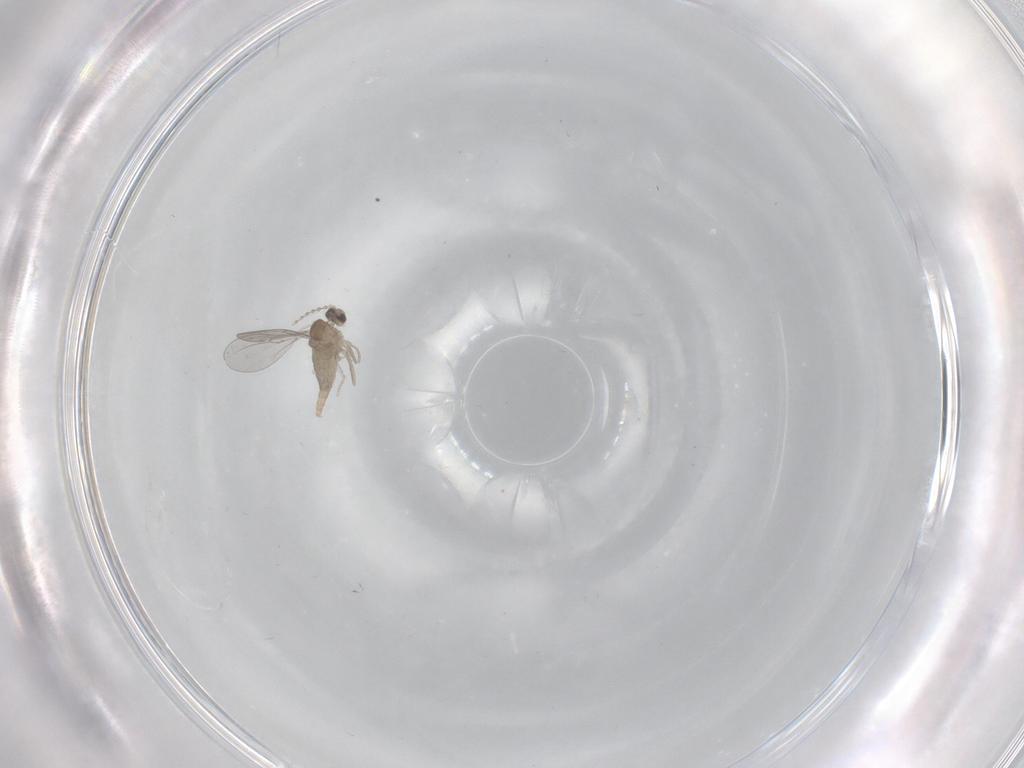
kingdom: Animalia
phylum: Arthropoda
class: Insecta
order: Diptera
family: Cecidomyiidae
